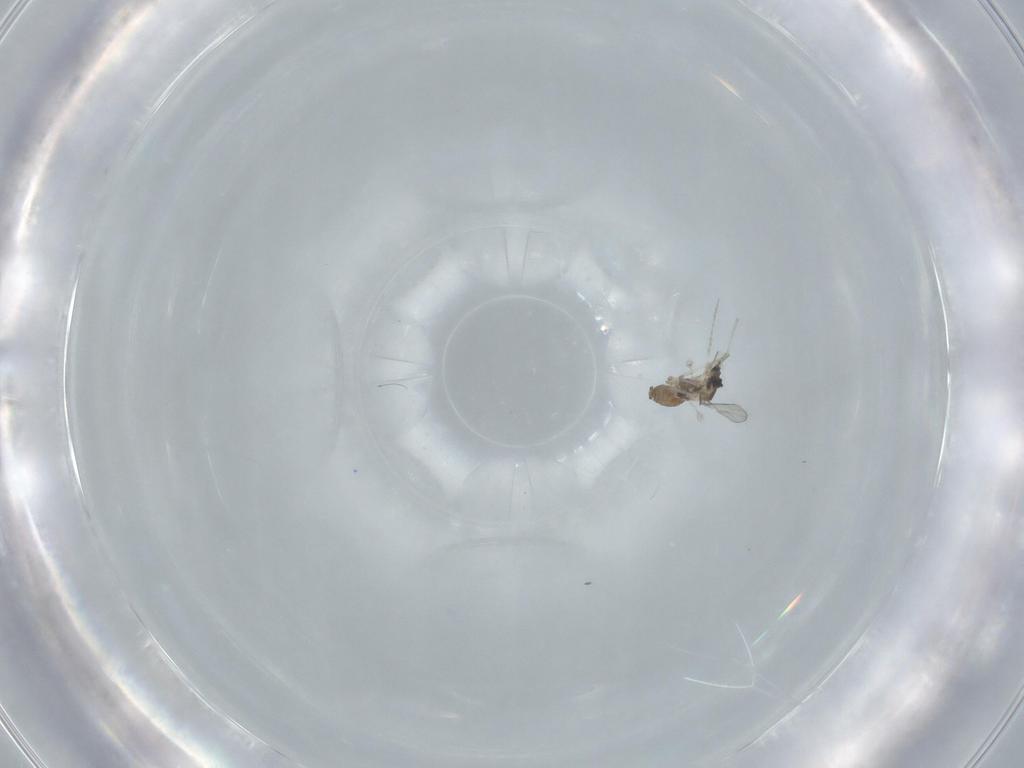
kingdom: Animalia
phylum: Arthropoda
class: Insecta
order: Diptera
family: Cecidomyiidae
